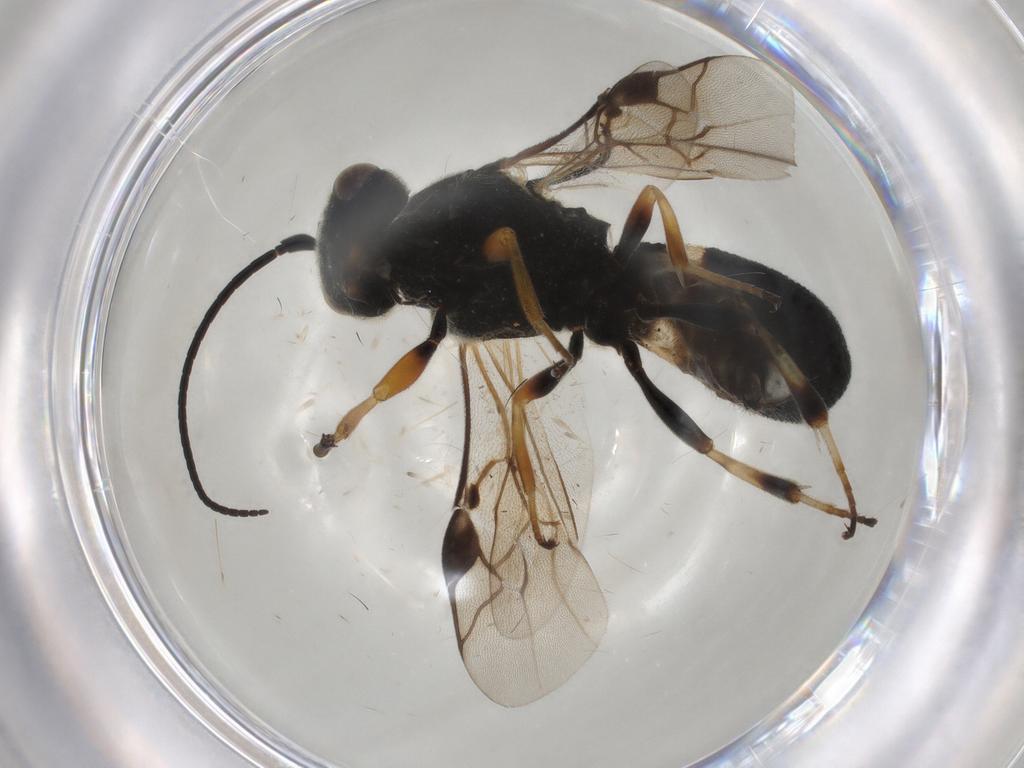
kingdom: Animalia
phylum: Arthropoda
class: Insecta
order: Hymenoptera
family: Braconidae
